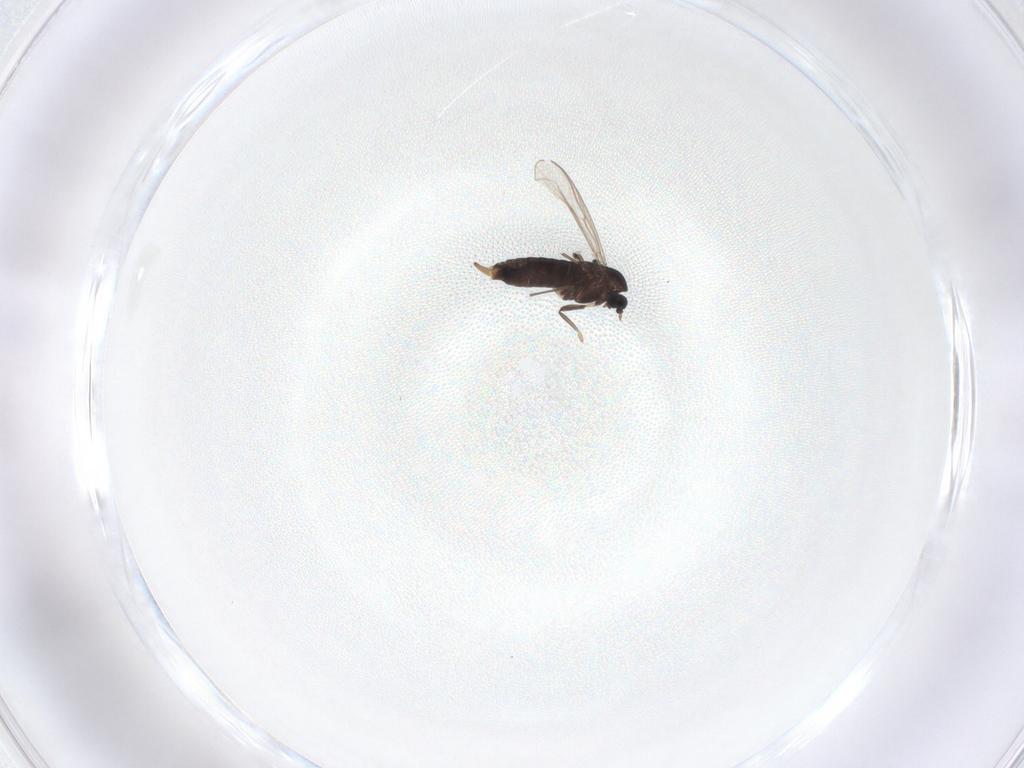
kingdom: Animalia
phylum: Arthropoda
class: Insecta
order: Diptera
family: Chironomidae
